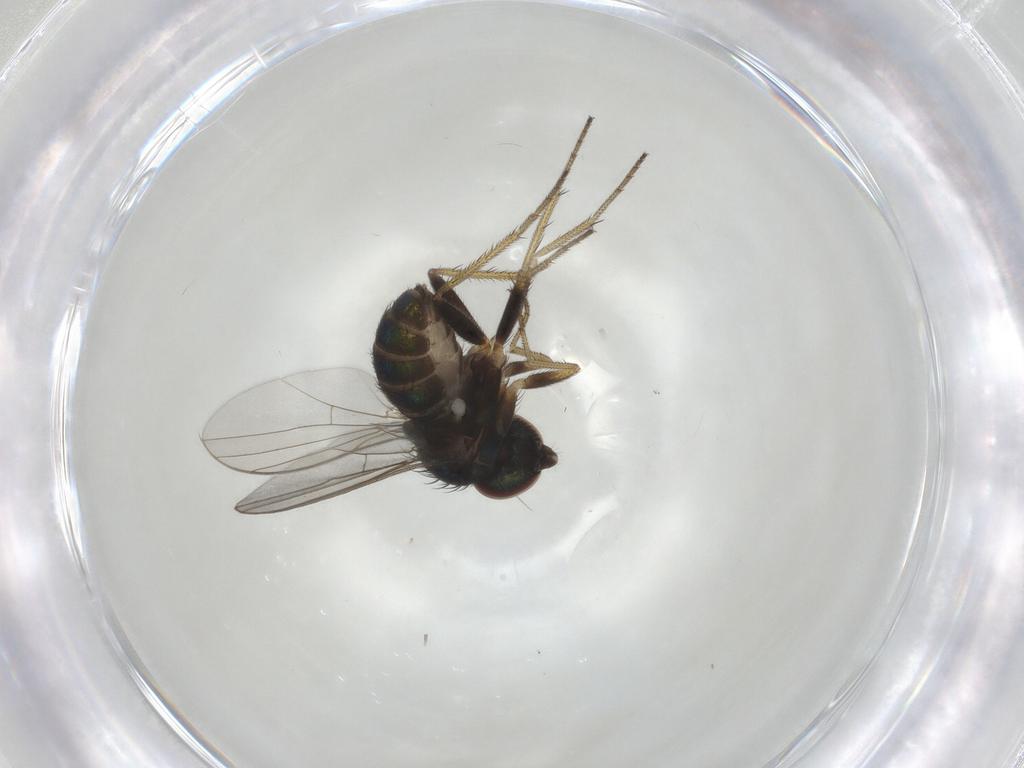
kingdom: Animalia
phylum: Arthropoda
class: Insecta
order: Diptera
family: Dolichopodidae
